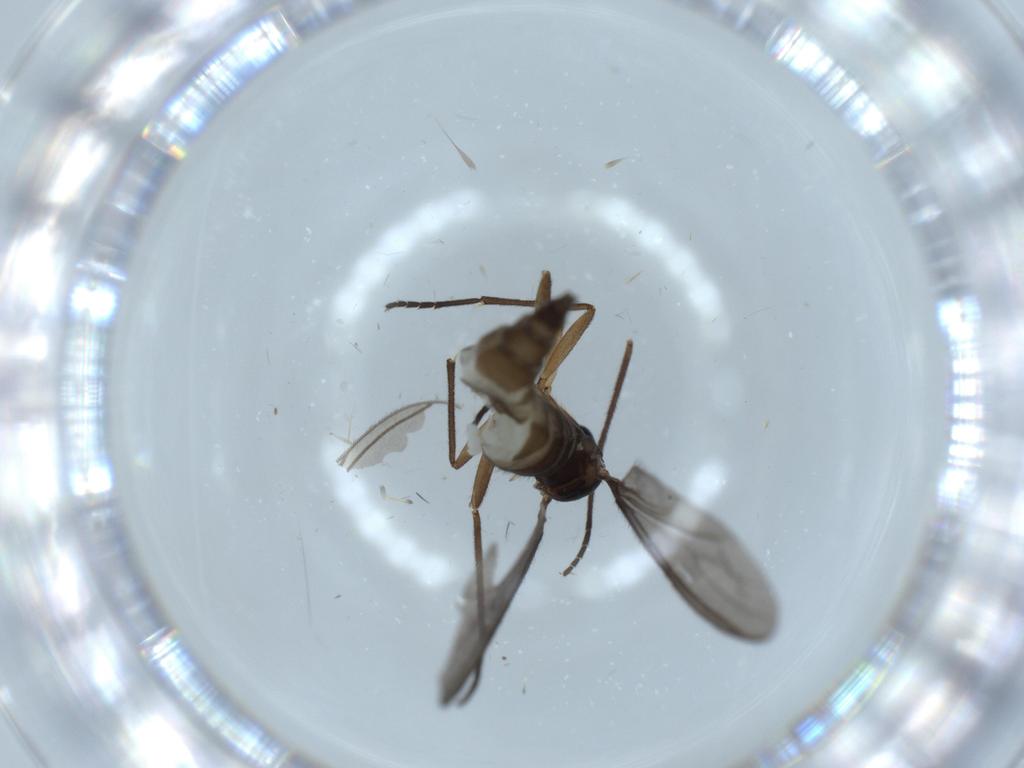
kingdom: Animalia
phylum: Arthropoda
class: Insecta
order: Diptera
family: Sciaridae
